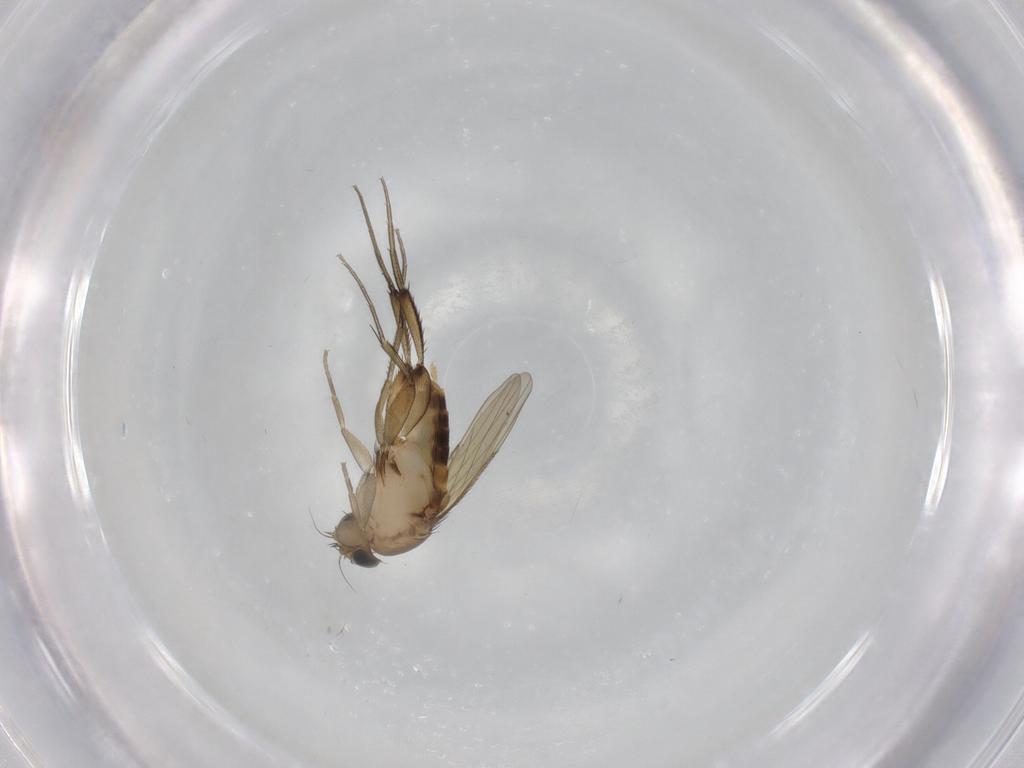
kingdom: Animalia
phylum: Arthropoda
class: Insecta
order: Diptera
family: Phoridae
